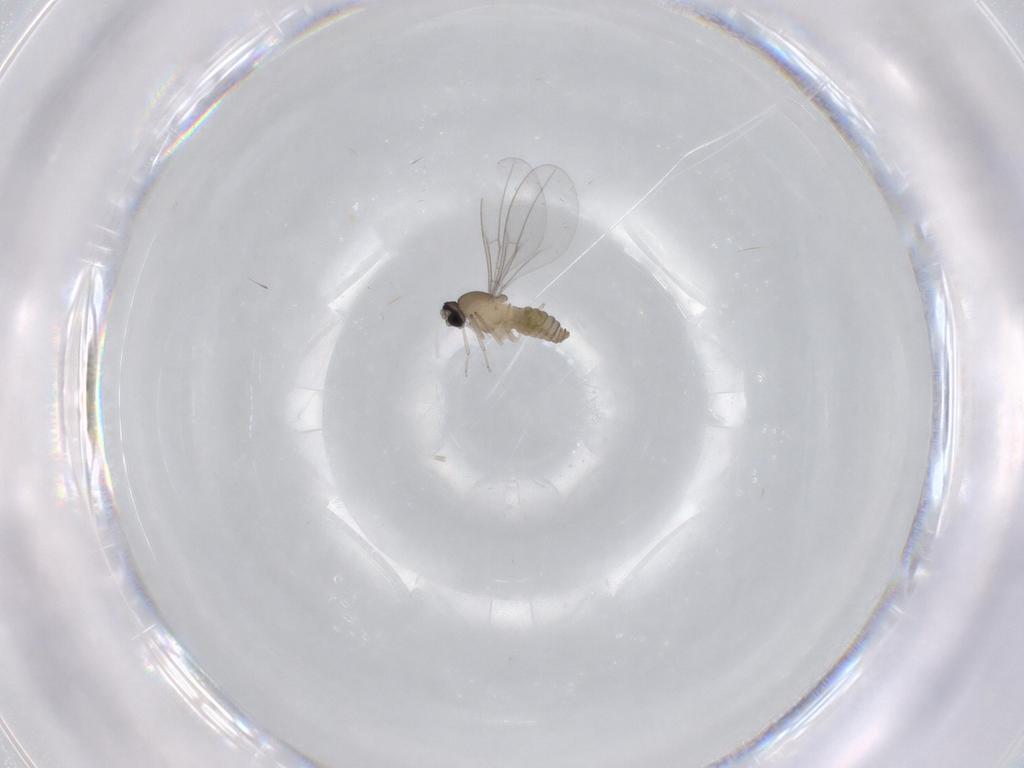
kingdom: Animalia
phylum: Arthropoda
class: Insecta
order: Diptera
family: Cecidomyiidae
